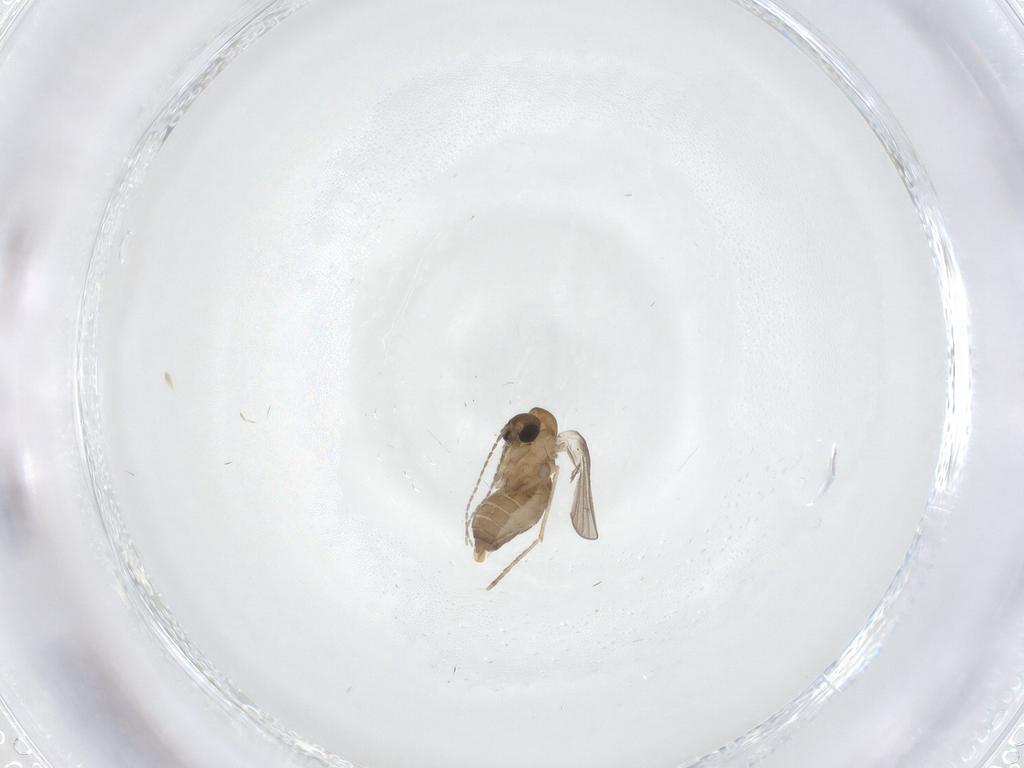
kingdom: Animalia
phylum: Arthropoda
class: Insecta
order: Diptera
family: Cecidomyiidae
